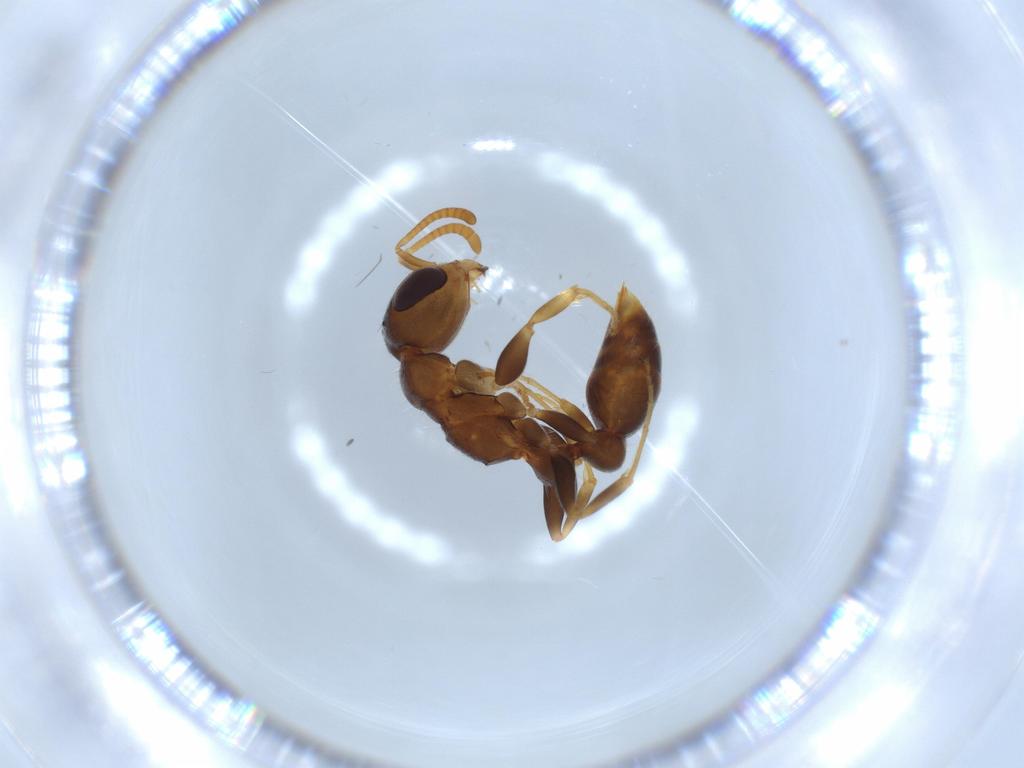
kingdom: Animalia
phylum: Arthropoda
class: Insecta
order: Hymenoptera
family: Formicidae
